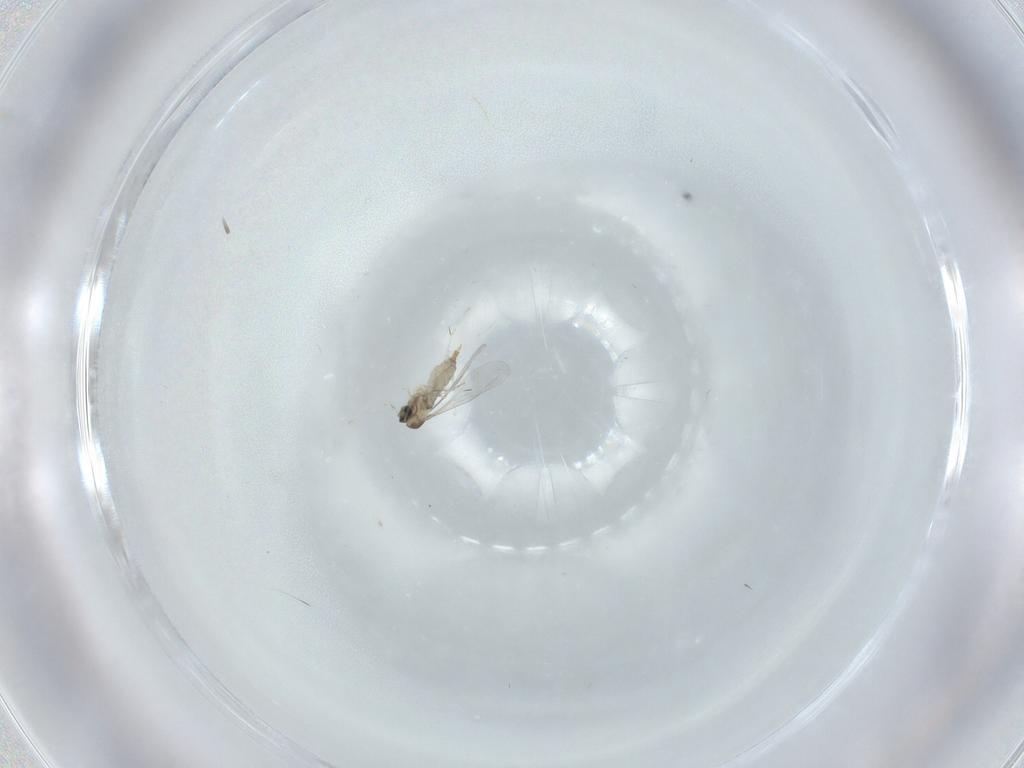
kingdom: Animalia
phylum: Arthropoda
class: Insecta
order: Diptera
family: Cecidomyiidae
